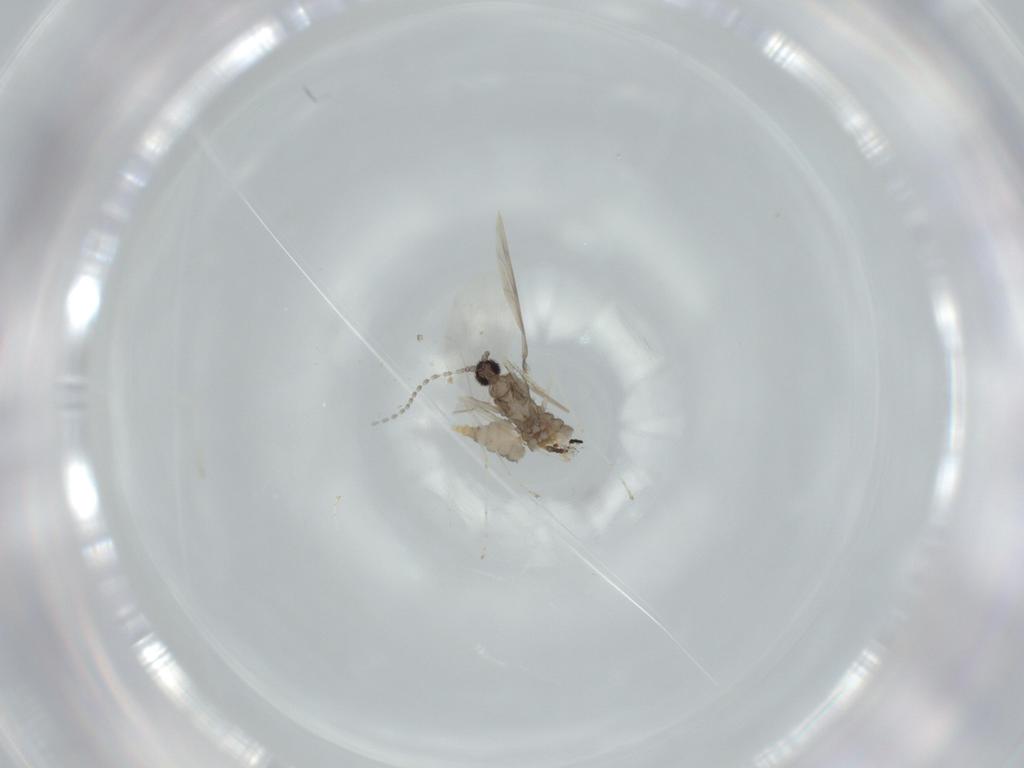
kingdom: Animalia
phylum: Arthropoda
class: Insecta
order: Diptera
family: Cecidomyiidae
